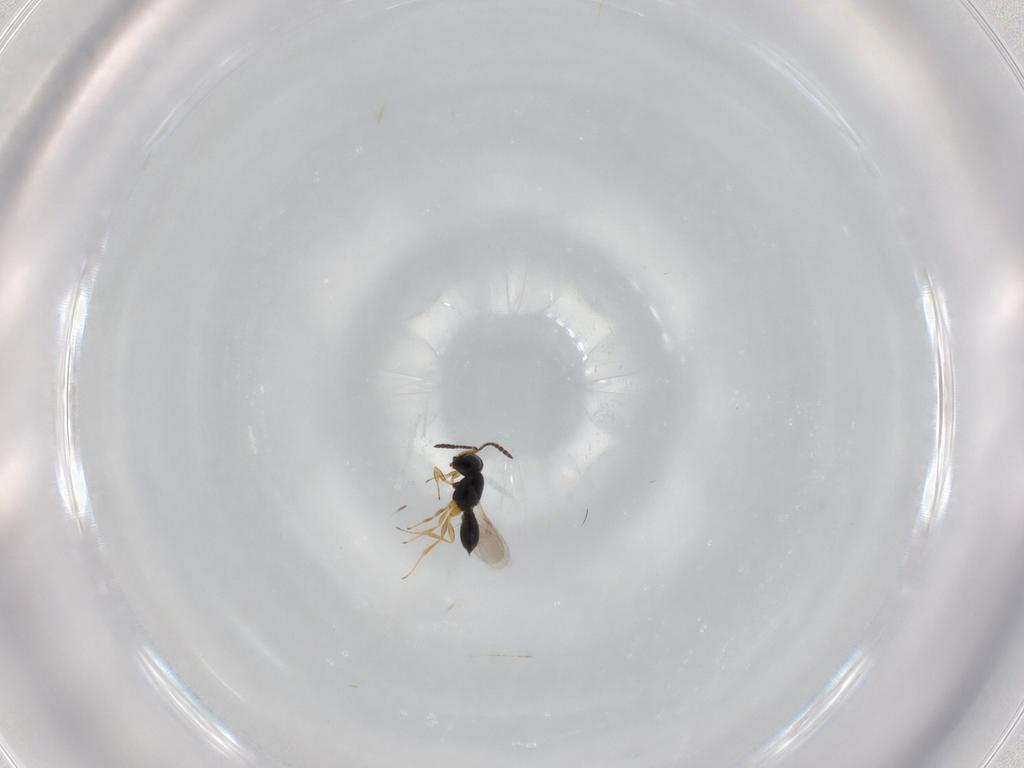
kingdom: Animalia
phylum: Arthropoda
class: Insecta
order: Hymenoptera
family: Scelionidae
